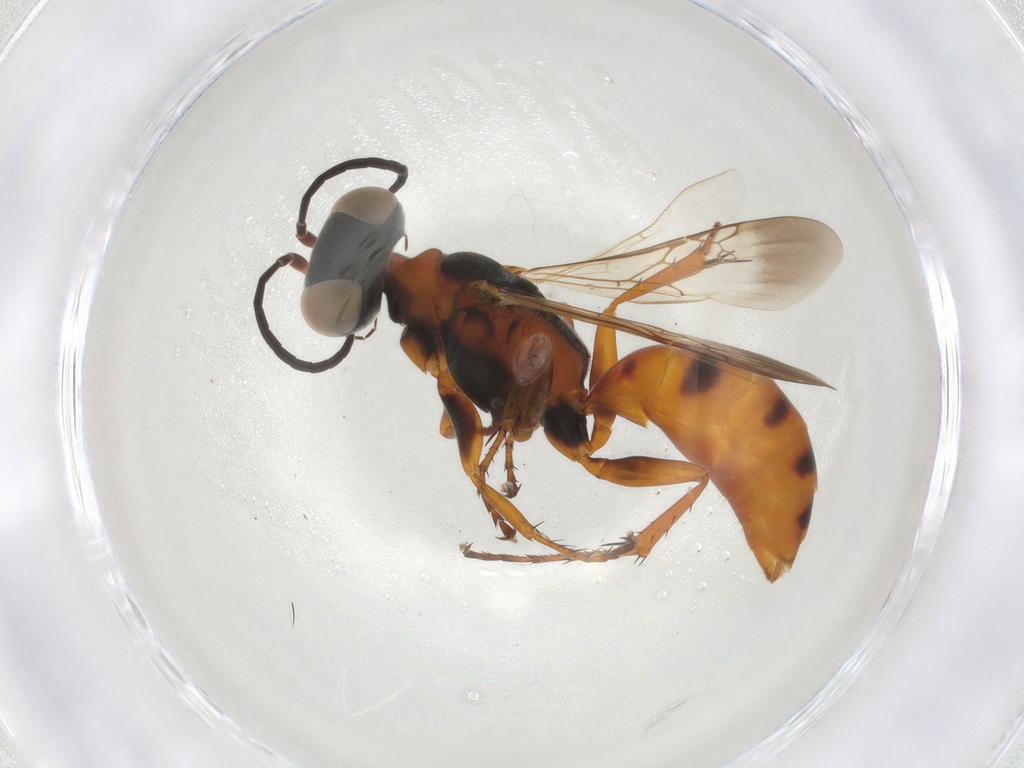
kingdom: Animalia
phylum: Arthropoda
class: Insecta
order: Hymenoptera
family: Crabronidae
